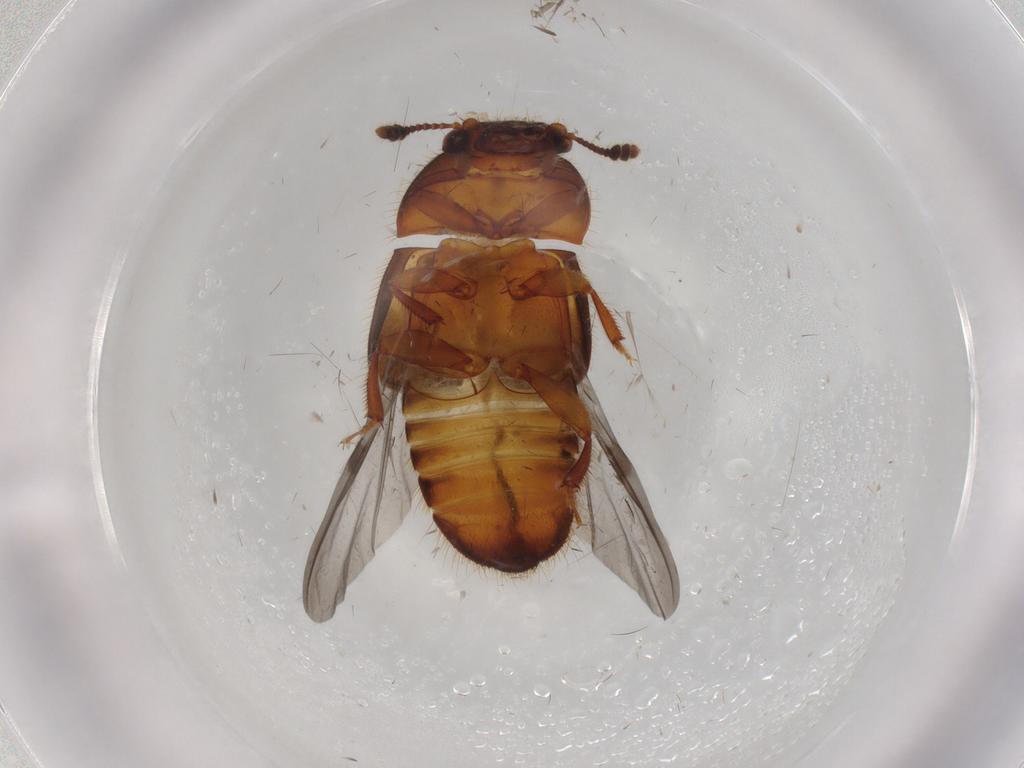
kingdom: Animalia
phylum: Arthropoda
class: Insecta
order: Coleoptera
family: Nitidulidae
